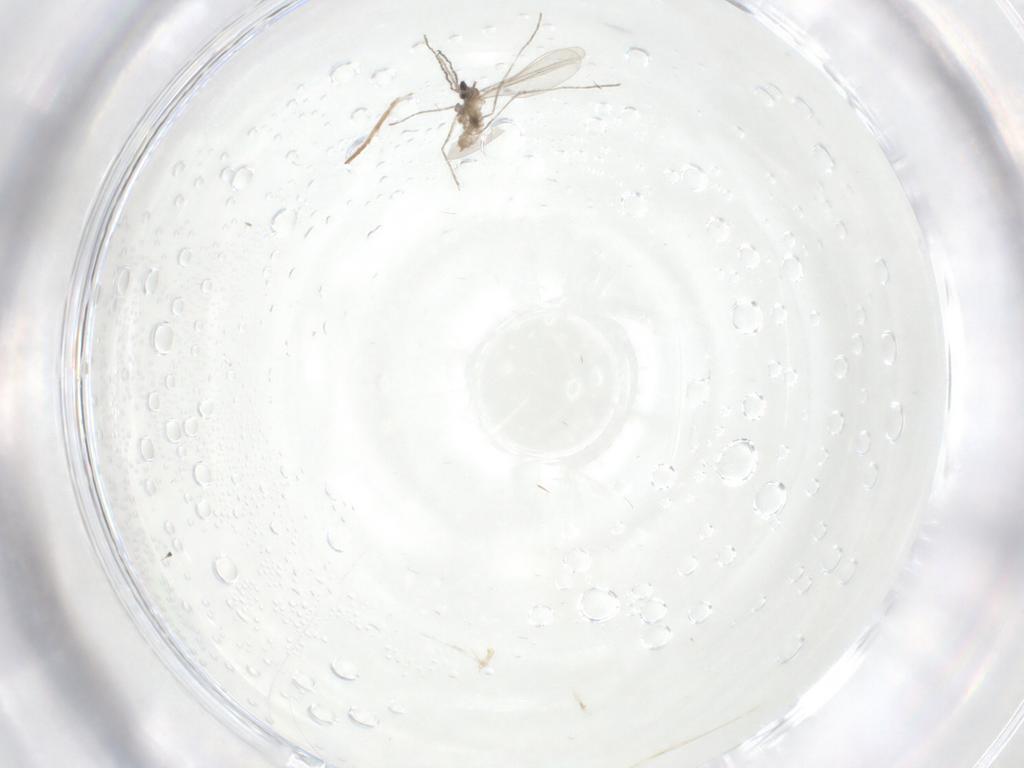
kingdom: Animalia
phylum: Arthropoda
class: Insecta
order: Diptera
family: Cecidomyiidae
